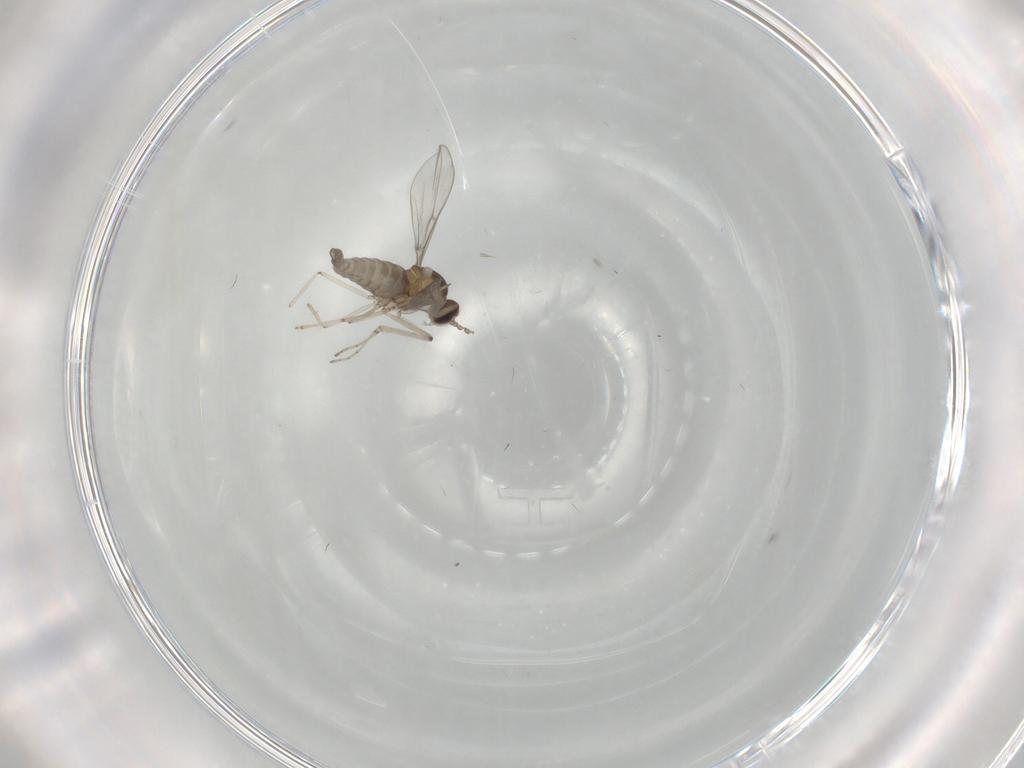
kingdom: Animalia
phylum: Arthropoda
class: Insecta
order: Diptera
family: Cecidomyiidae
